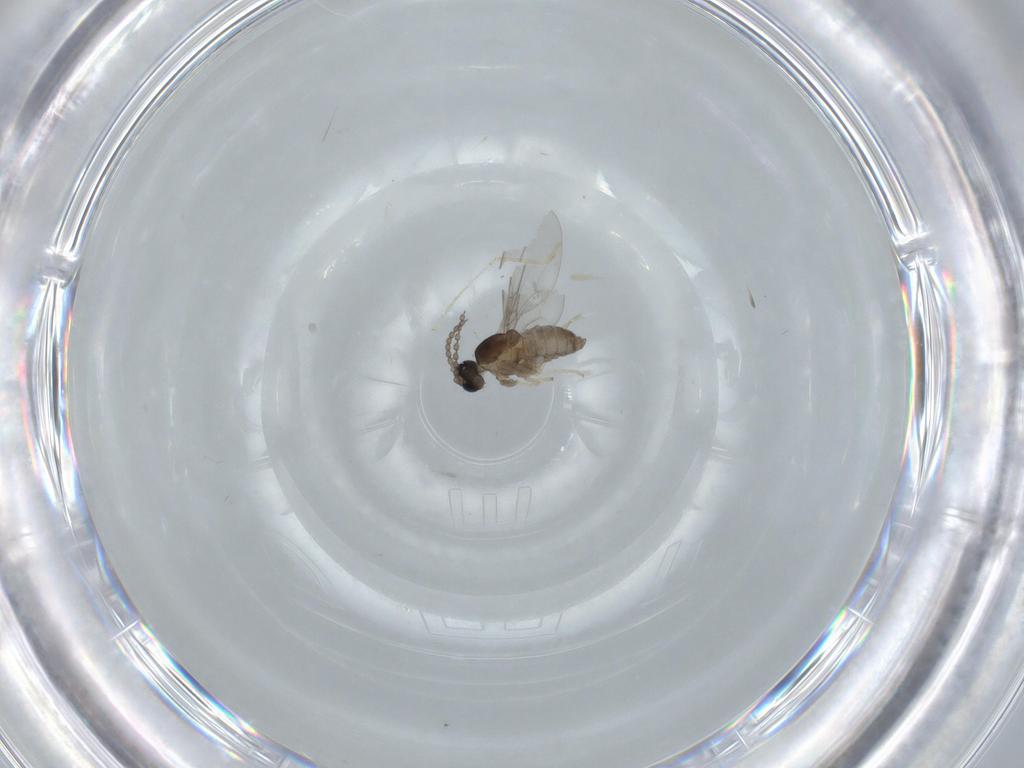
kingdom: Animalia
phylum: Arthropoda
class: Insecta
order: Diptera
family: Cecidomyiidae
